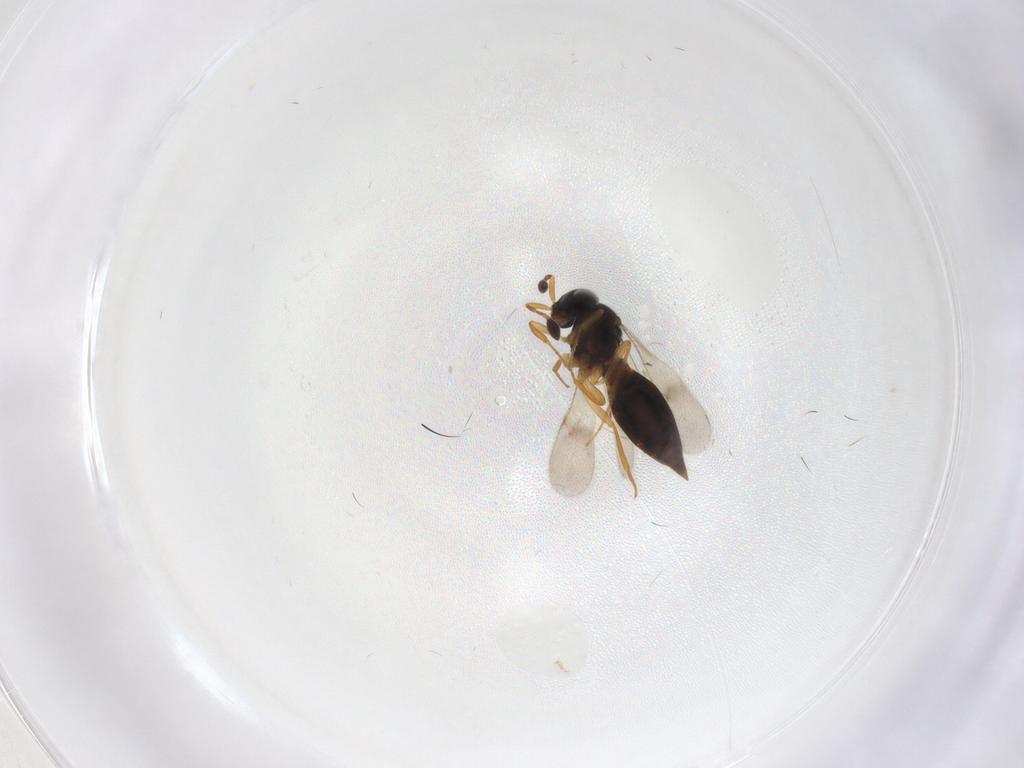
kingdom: Animalia
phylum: Arthropoda
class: Insecta
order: Hymenoptera
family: Scelionidae
